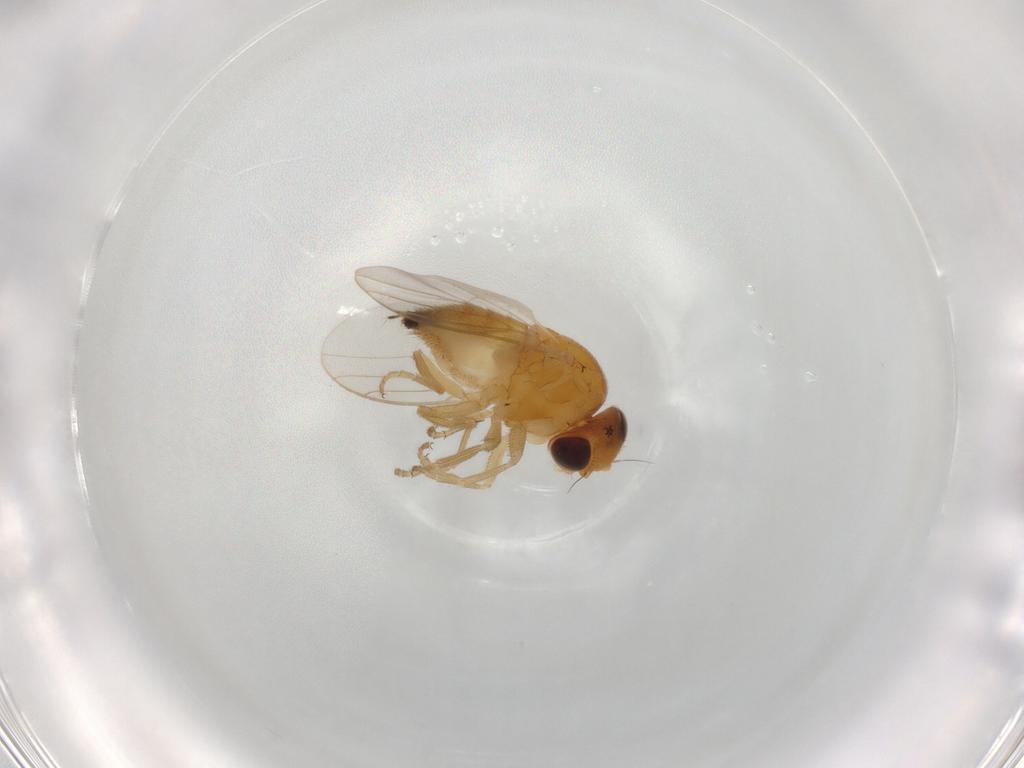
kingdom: Animalia
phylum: Arthropoda
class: Insecta
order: Diptera
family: Chloropidae
